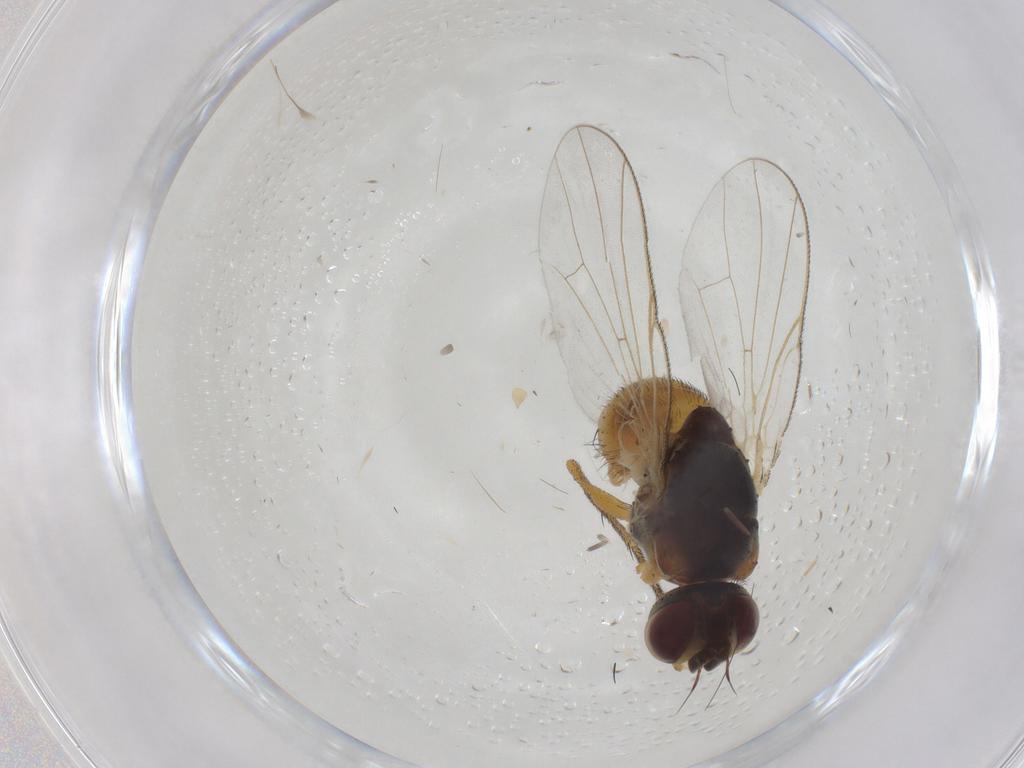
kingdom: Animalia
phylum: Arthropoda
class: Insecta
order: Diptera
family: Muscidae
